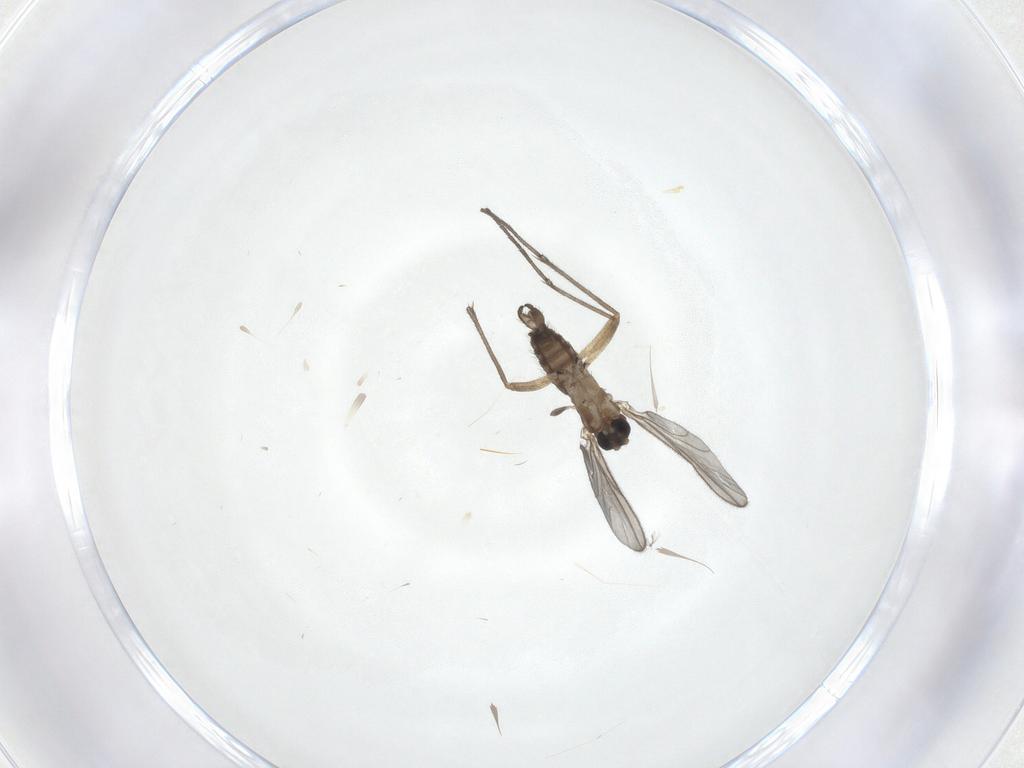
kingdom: Animalia
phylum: Arthropoda
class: Insecta
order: Diptera
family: Sciaridae
